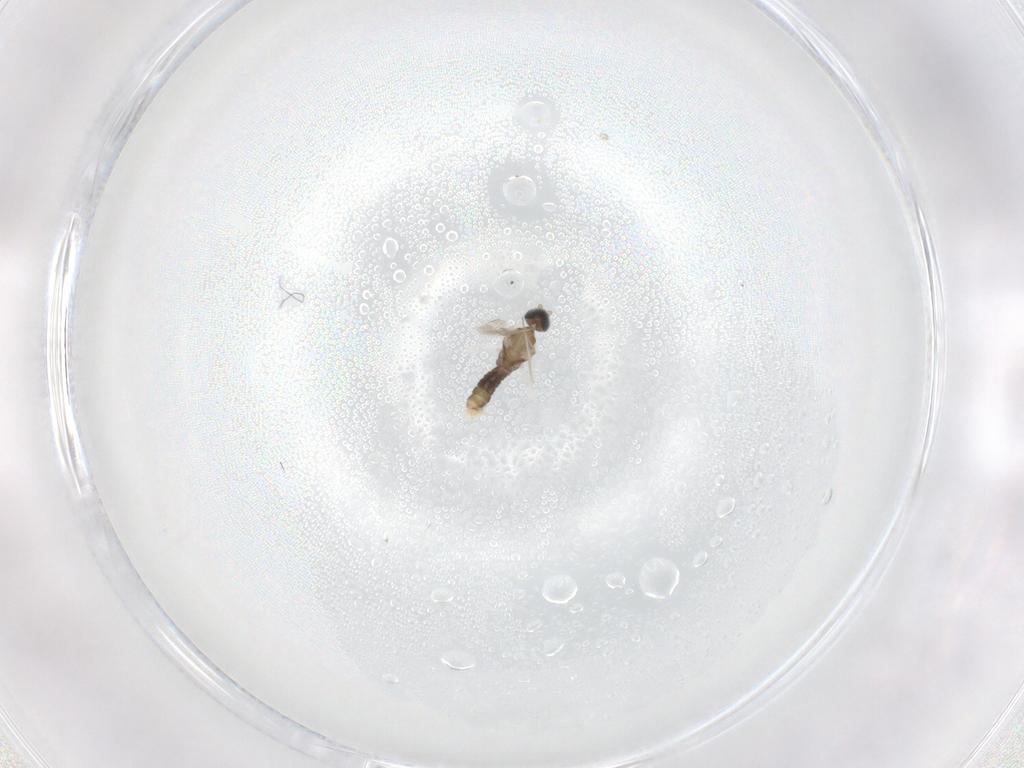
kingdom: Animalia
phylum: Arthropoda
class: Insecta
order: Diptera
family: Cecidomyiidae
